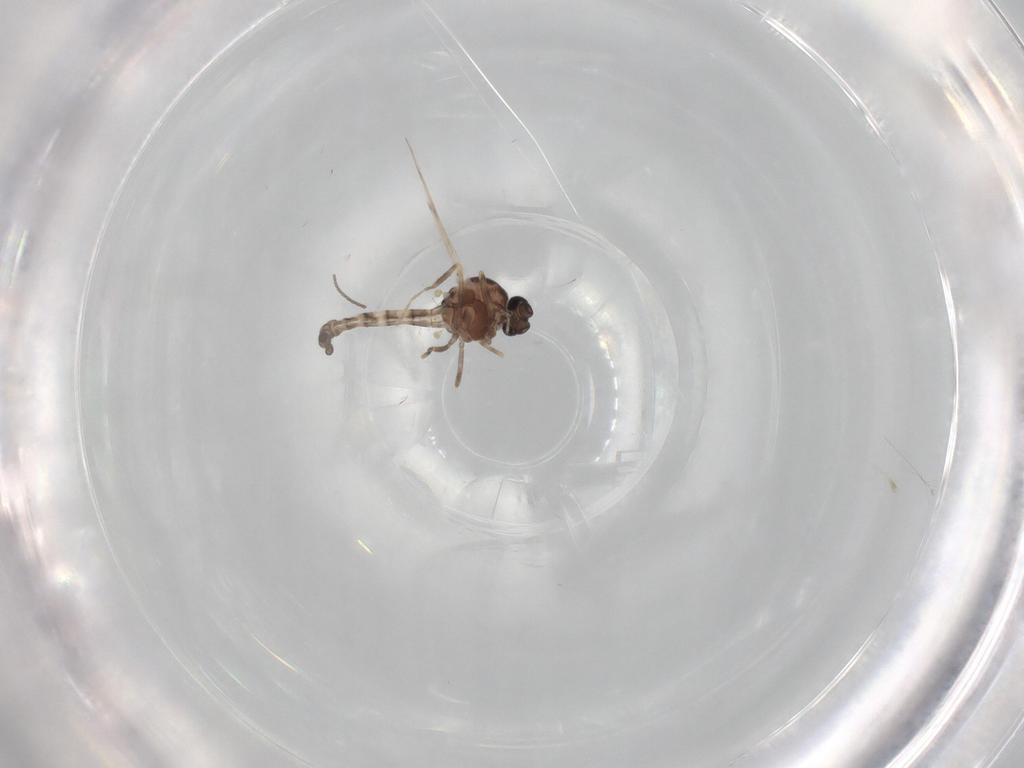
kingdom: Animalia
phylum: Arthropoda
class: Insecta
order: Diptera
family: Ceratopogonidae
